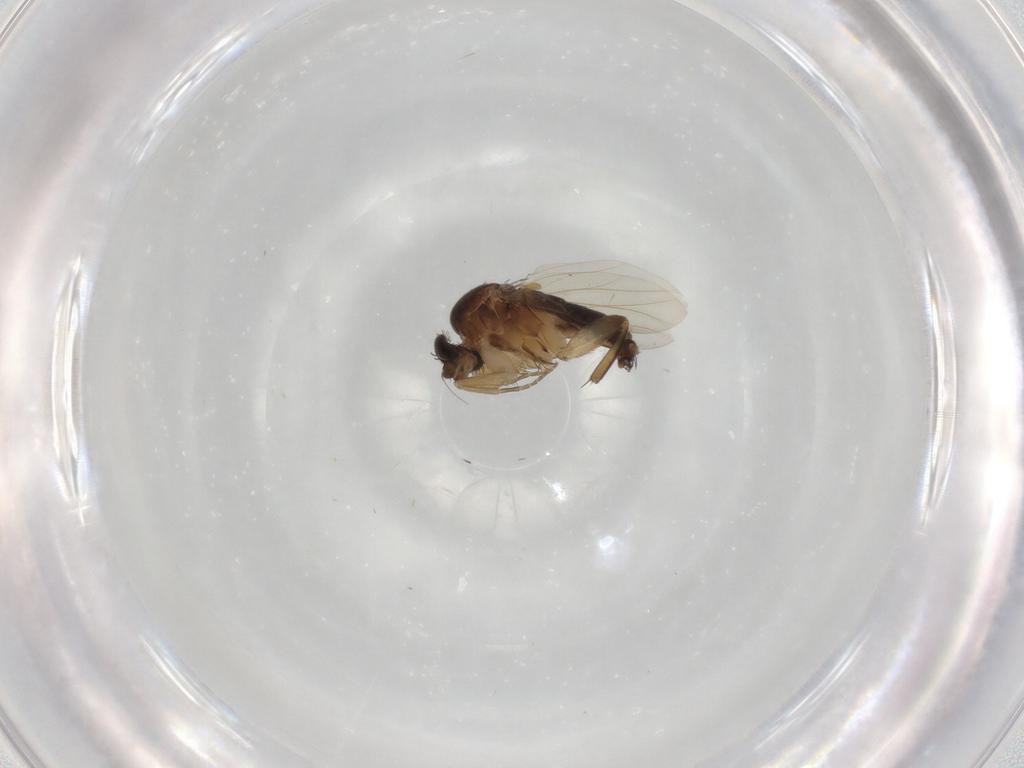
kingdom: Animalia
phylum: Arthropoda
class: Insecta
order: Diptera
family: Phoridae
